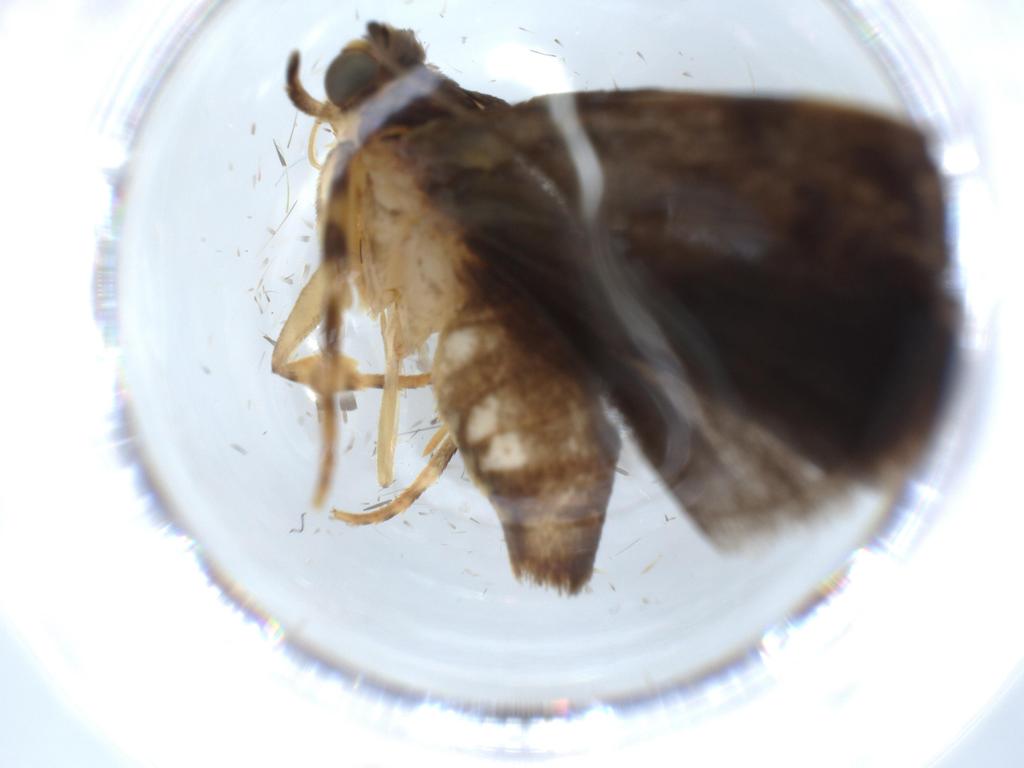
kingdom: Animalia
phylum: Arthropoda
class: Insecta
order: Lepidoptera
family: Immidae
